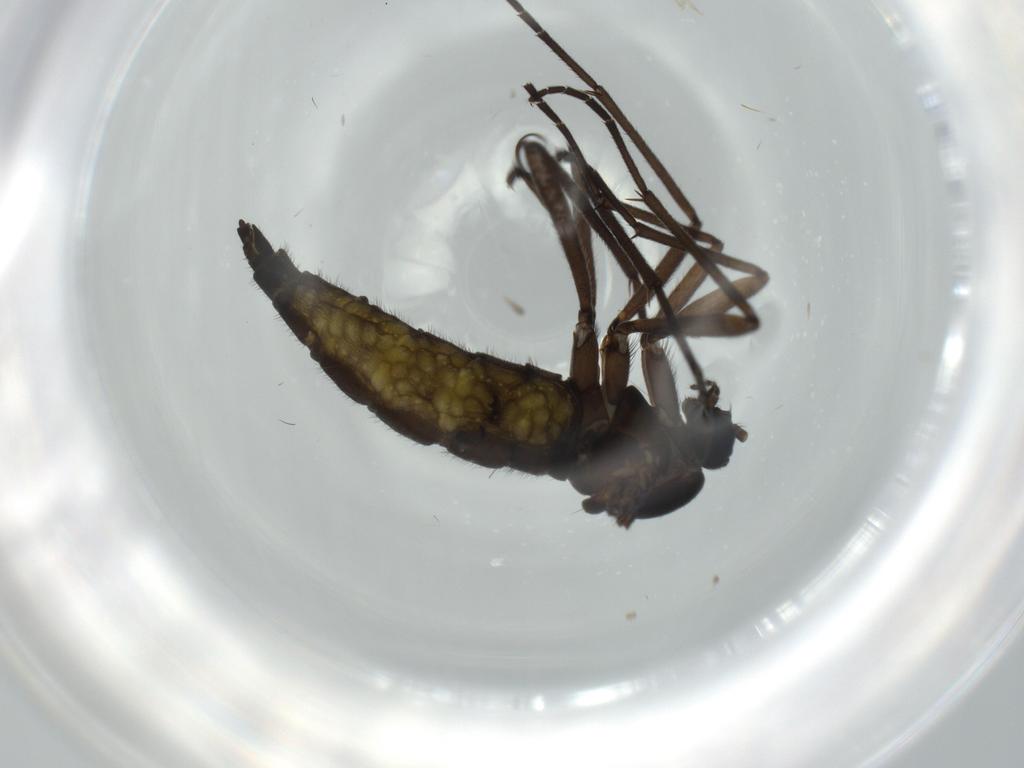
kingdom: Animalia
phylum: Arthropoda
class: Insecta
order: Diptera
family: Sciaridae
